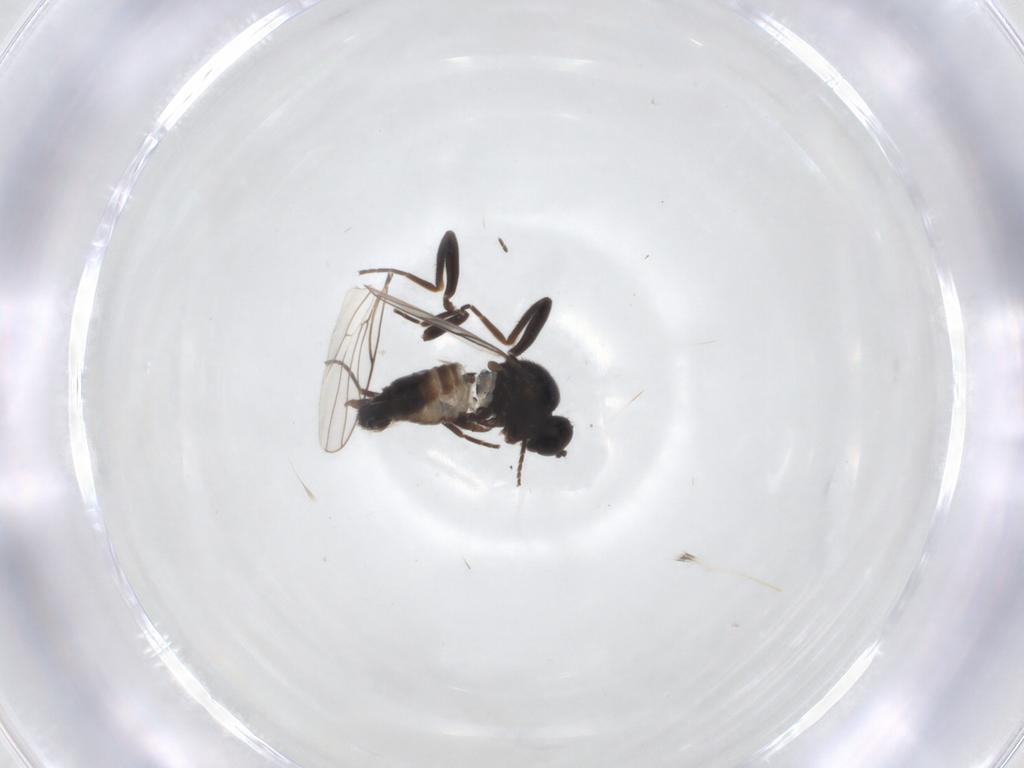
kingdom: Animalia
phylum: Arthropoda
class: Insecta
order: Diptera
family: Hybotidae
